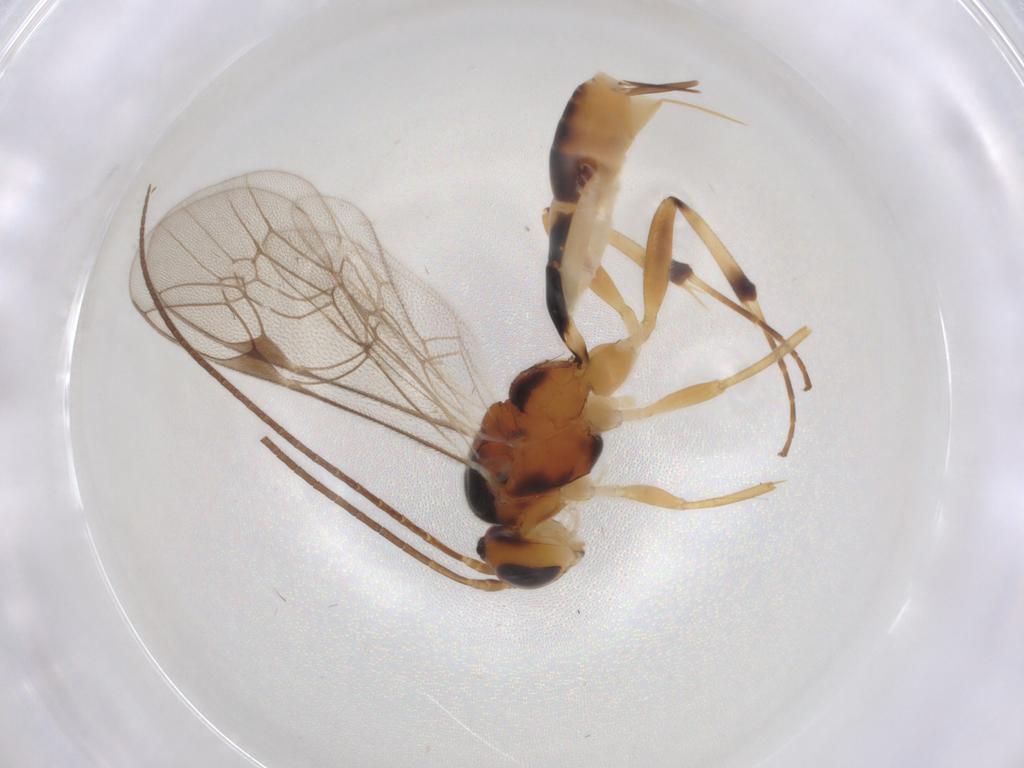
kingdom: Animalia
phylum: Arthropoda
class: Insecta
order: Hymenoptera
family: Ichneumonidae
